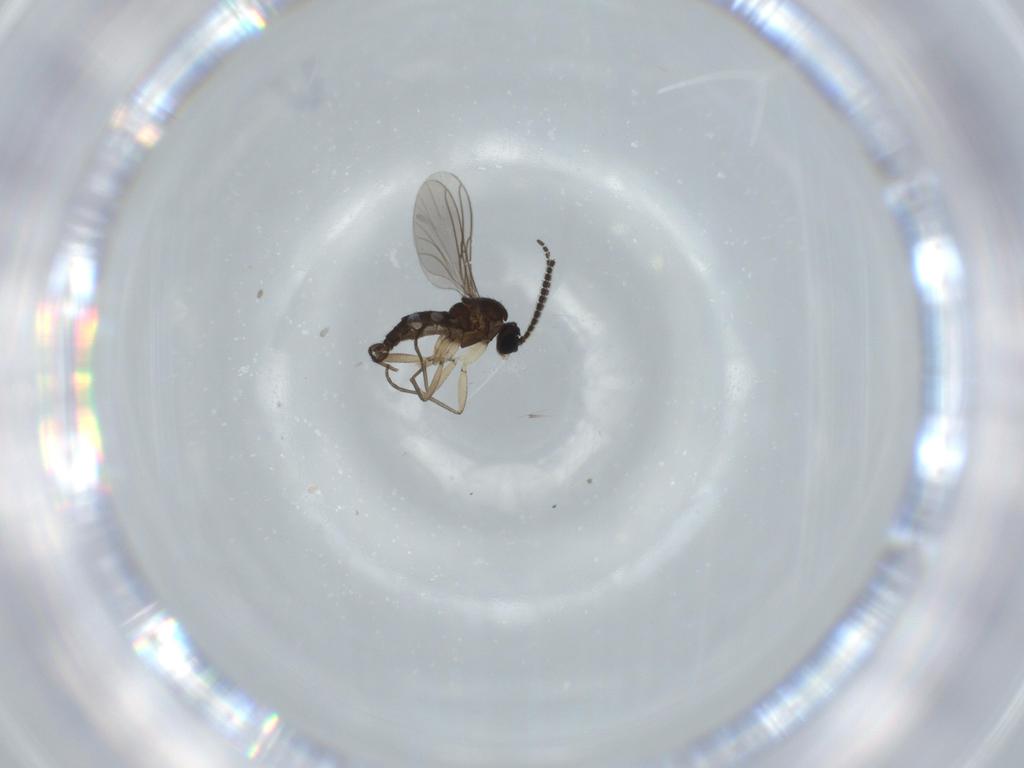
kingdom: Animalia
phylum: Arthropoda
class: Insecta
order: Diptera
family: Sciaridae
